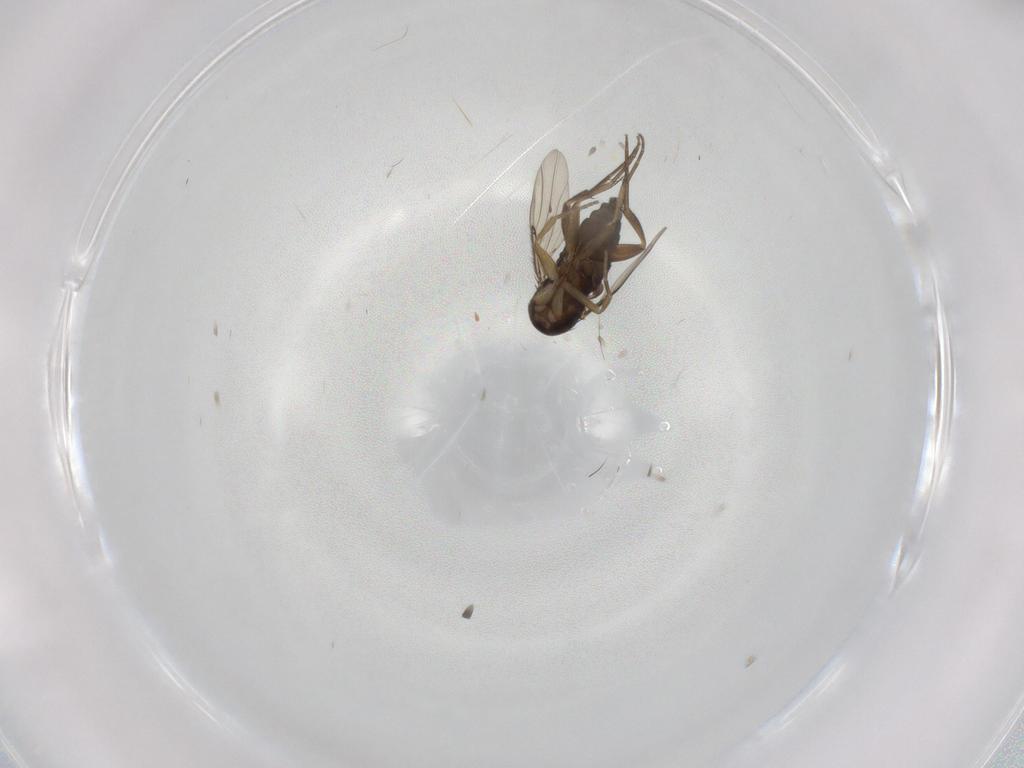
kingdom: Animalia
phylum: Arthropoda
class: Insecta
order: Diptera
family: Phoridae
